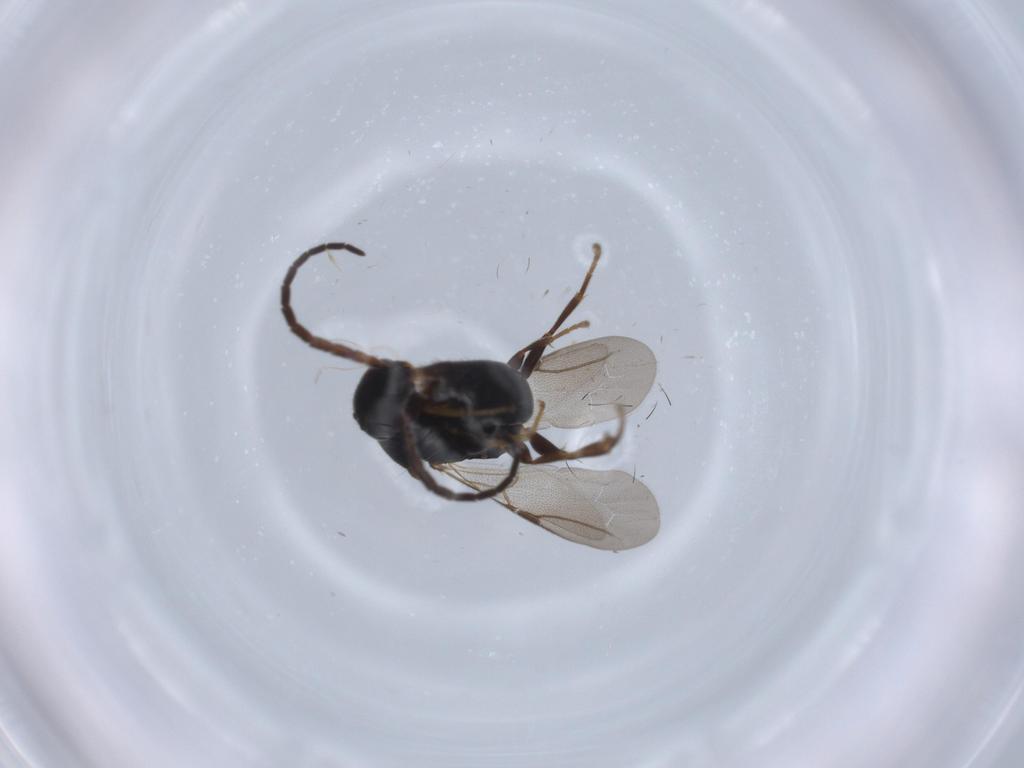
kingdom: Animalia
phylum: Arthropoda
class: Insecta
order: Hymenoptera
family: Bethylidae
